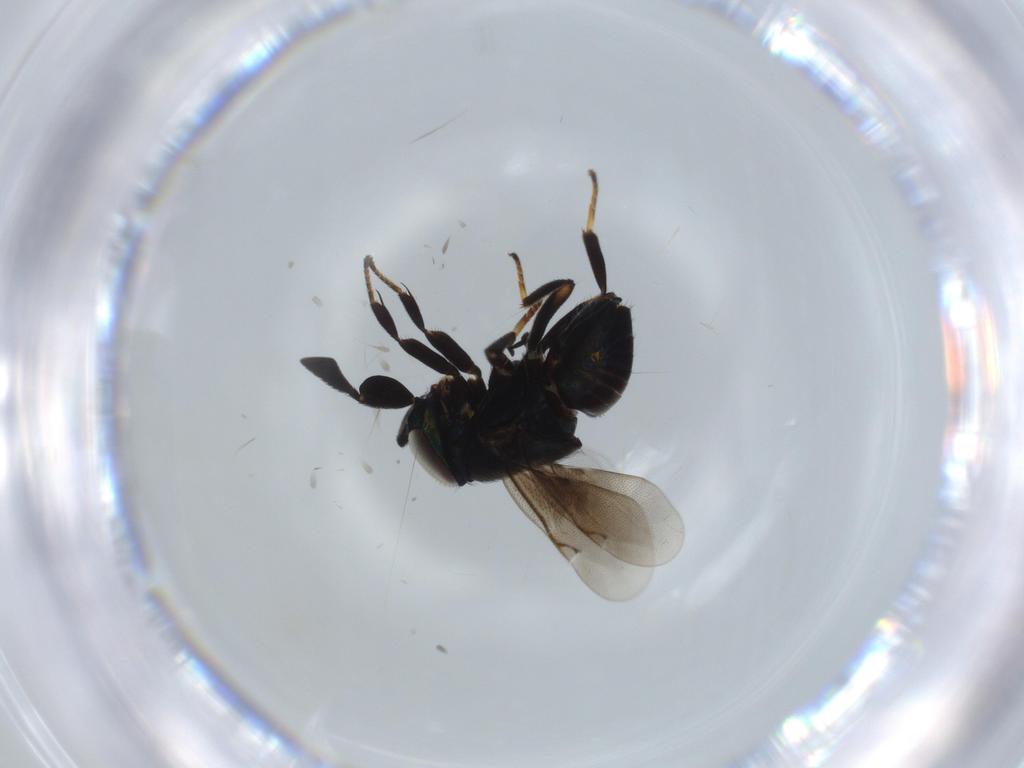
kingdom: Animalia
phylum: Arthropoda
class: Insecta
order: Hymenoptera
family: Encyrtidae
